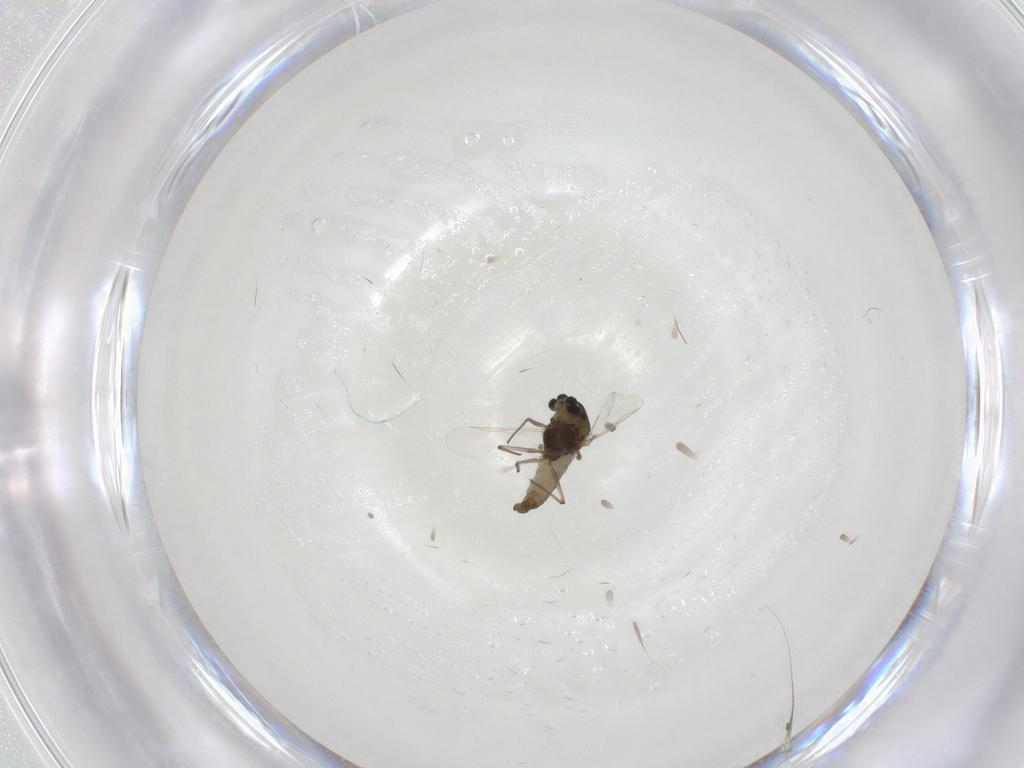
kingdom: Animalia
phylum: Arthropoda
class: Insecta
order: Diptera
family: Chironomidae
